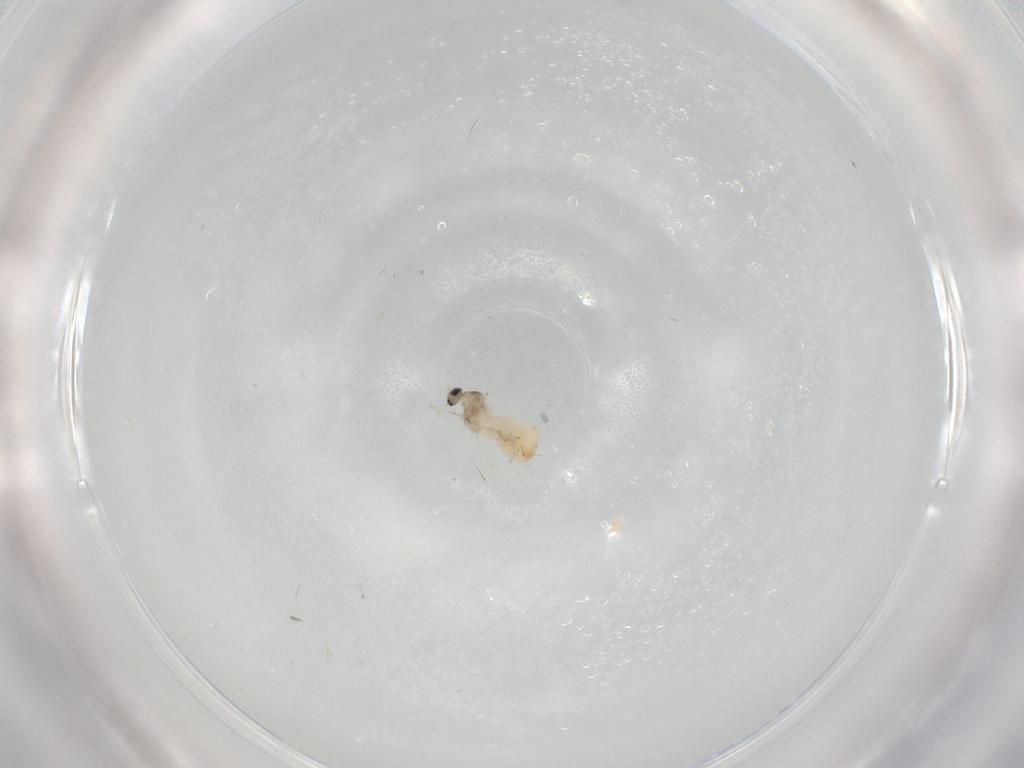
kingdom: Animalia
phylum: Arthropoda
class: Insecta
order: Diptera
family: Cecidomyiidae
